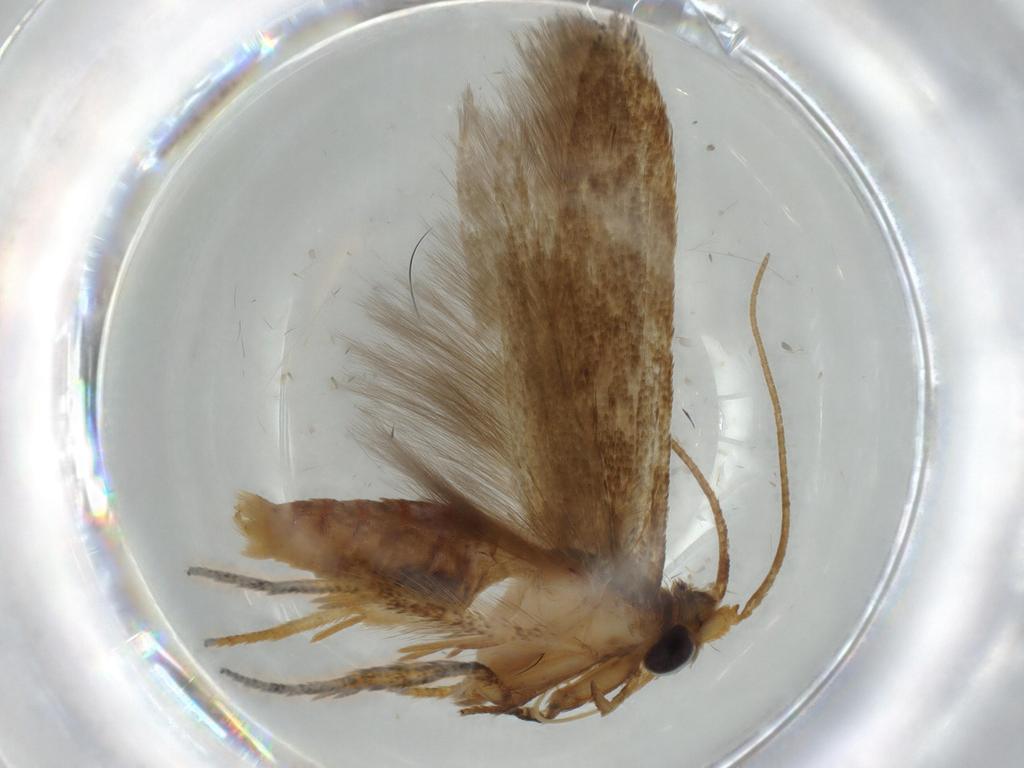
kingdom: Animalia
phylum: Arthropoda
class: Insecta
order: Lepidoptera
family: Coleophoridae
